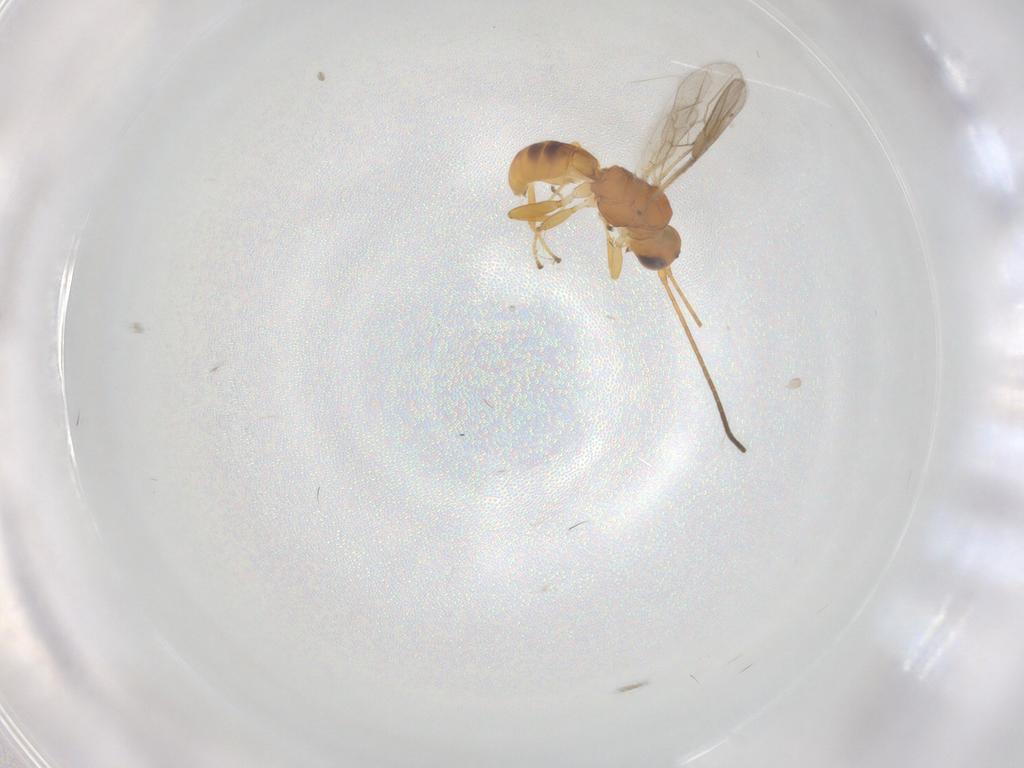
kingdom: Animalia
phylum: Arthropoda
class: Insecta
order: Hymenoptera
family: Braconidae
